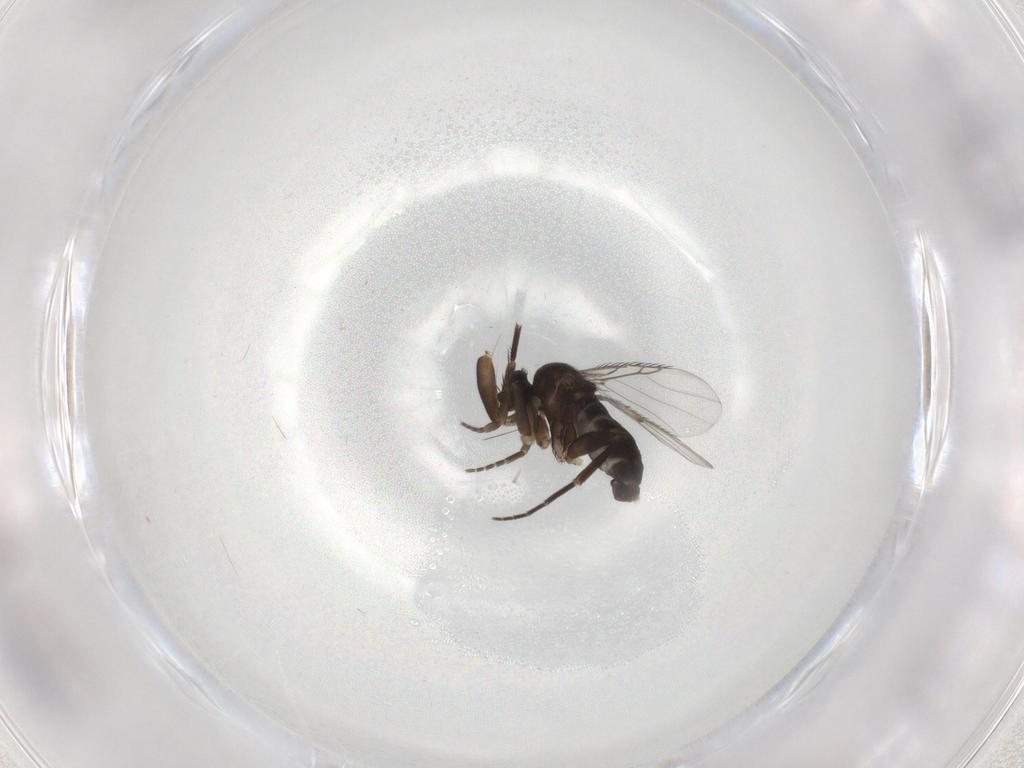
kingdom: Animalia
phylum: Arthropoda
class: Insecta
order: Diptera
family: Phoridae
